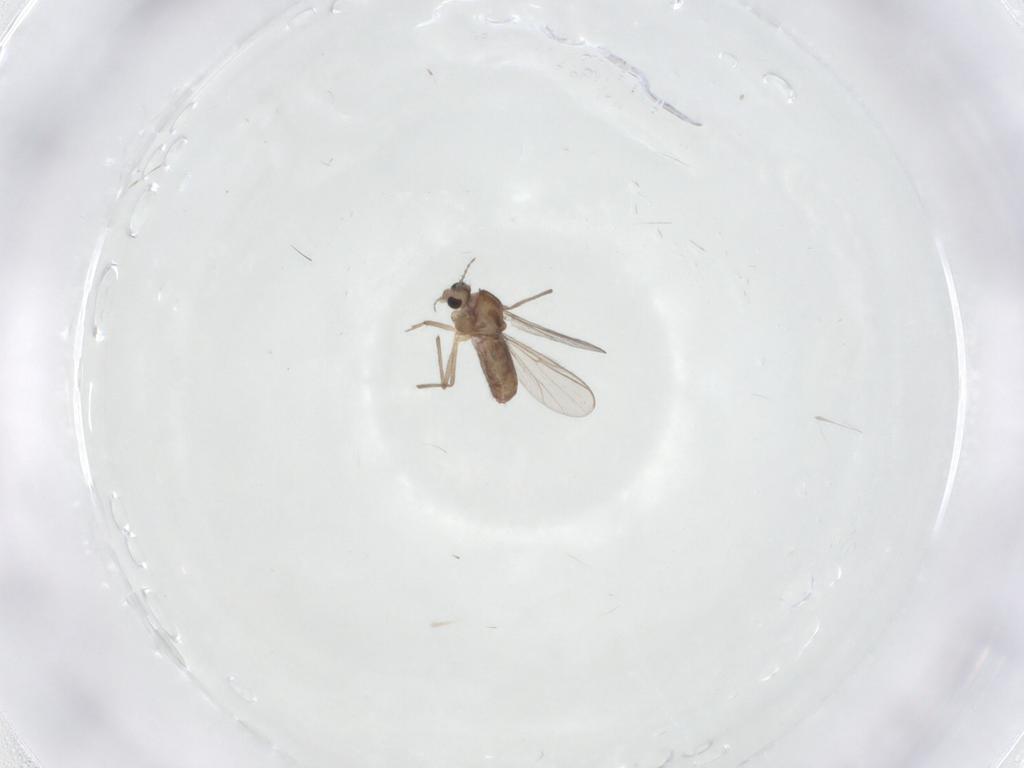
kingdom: Animalia
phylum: Arthropoda
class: Insecta
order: Diptera
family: Chironomidae
